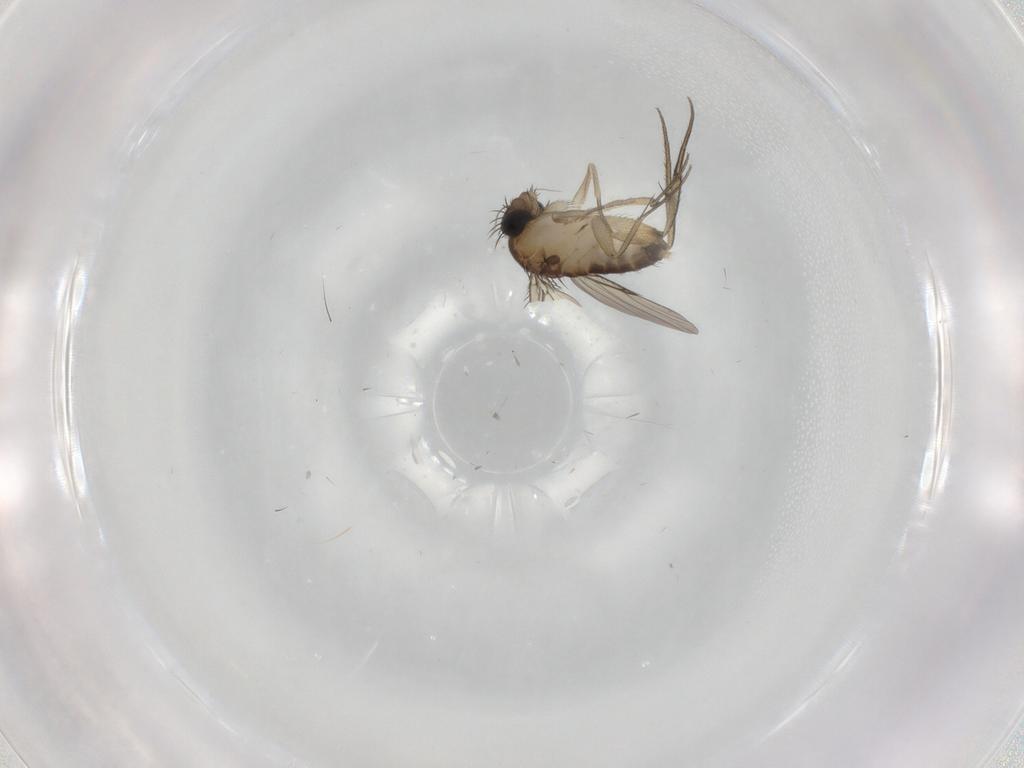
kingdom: Animalia
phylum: Arthropoda
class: Insecta
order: Diptera
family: Phoridae
